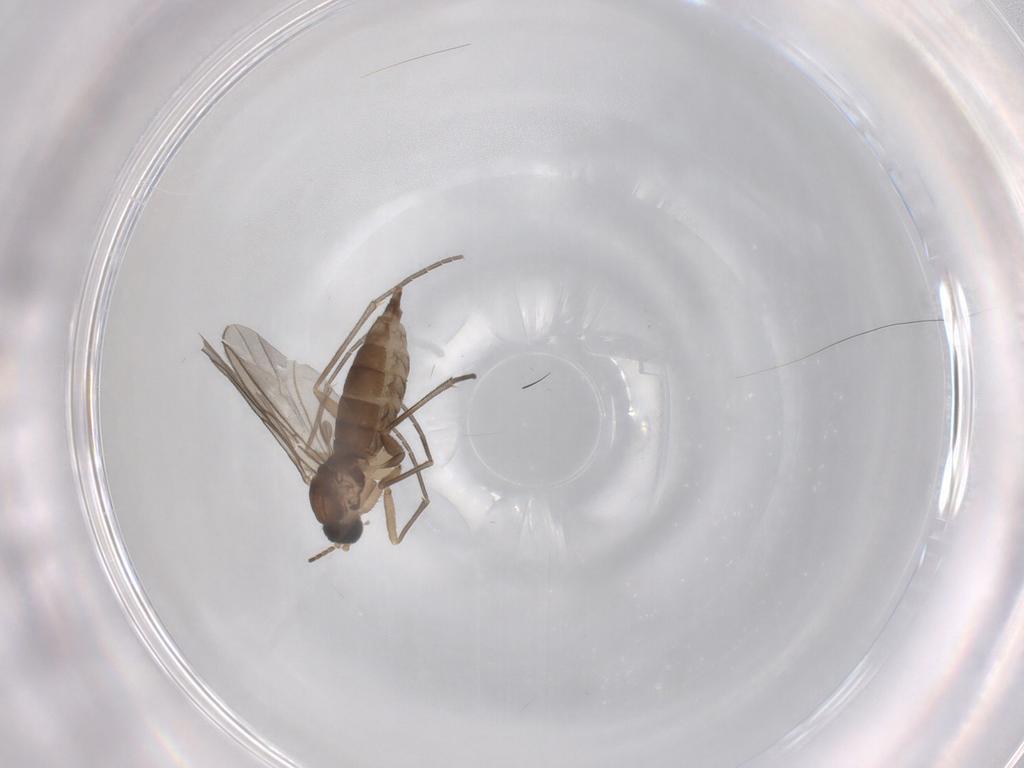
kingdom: Animalia
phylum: Arthropoda
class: Insecta
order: Diptera
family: Sciaridae
